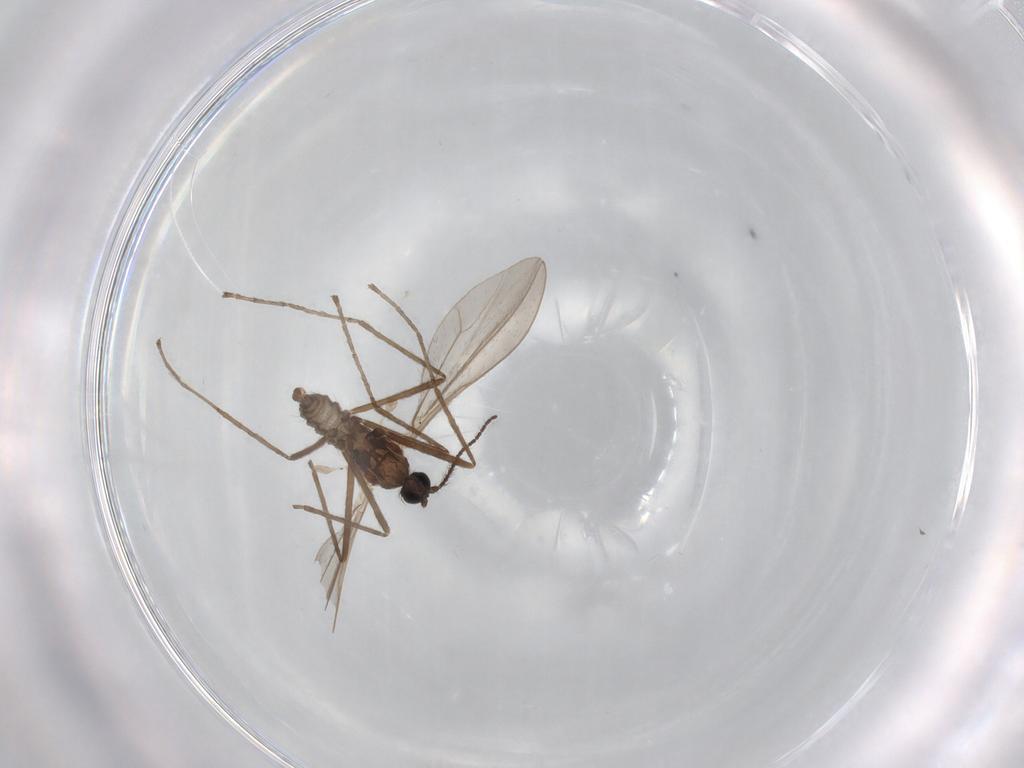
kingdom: Animalia
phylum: Arthropoda
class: Insecta
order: Diptera
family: Cecidomyiidae
